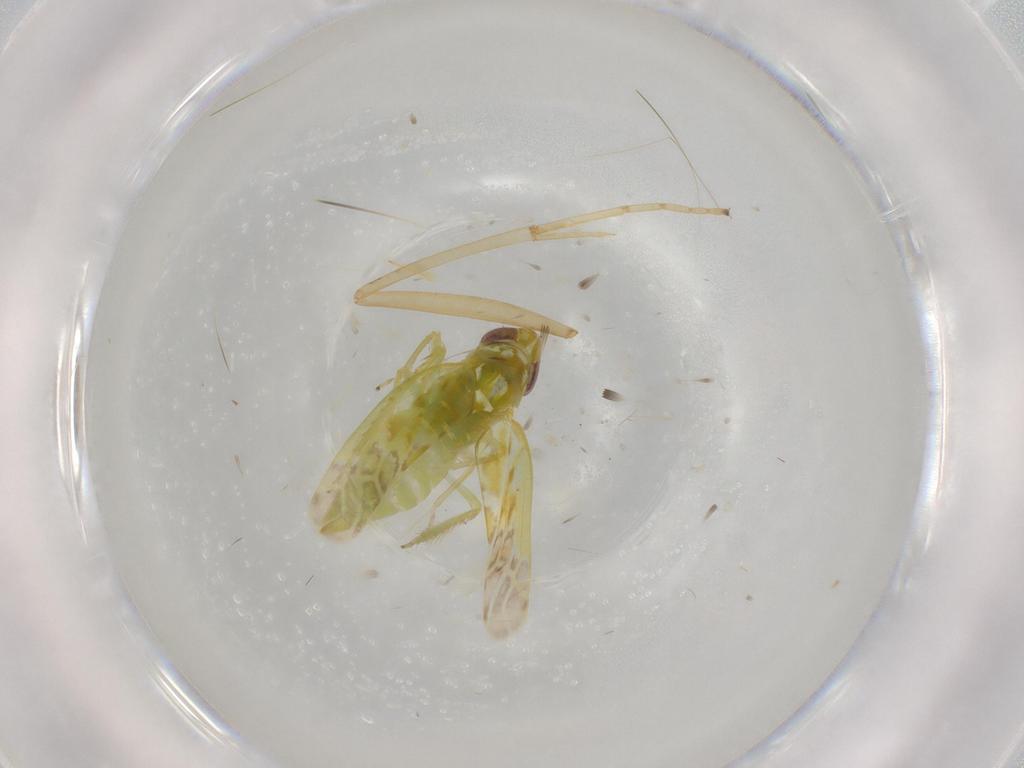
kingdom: Animalia
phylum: Arthropoda
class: Insecta
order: Hemiptera
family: Cicadellidae
